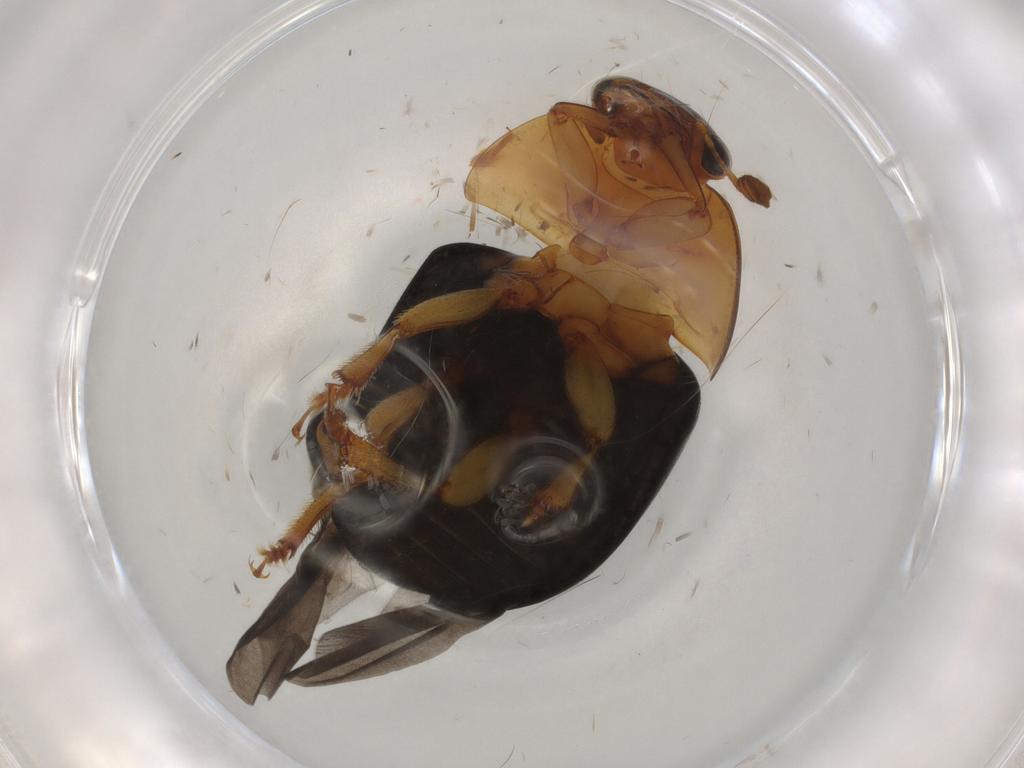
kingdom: Animalia
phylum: Arthropoda
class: Insecta
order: Coleoptera
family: Nitidulidae
